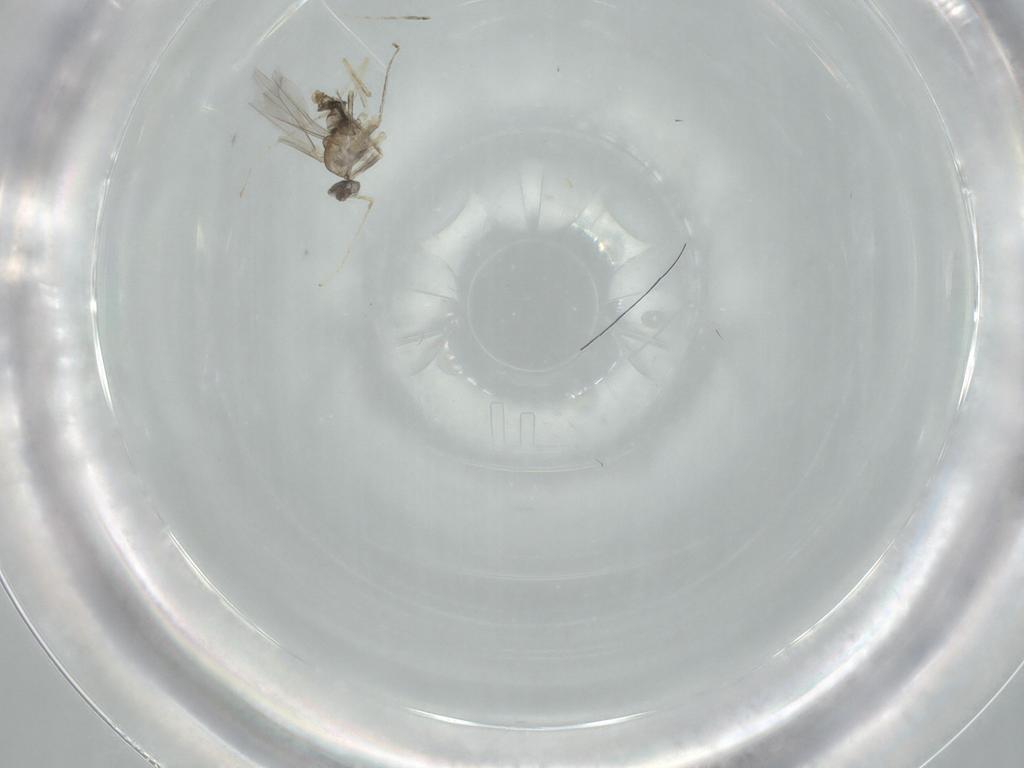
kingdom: Animalia
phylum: Arthropoda
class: Insecta
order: Diptera
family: Cecidomyiidae
